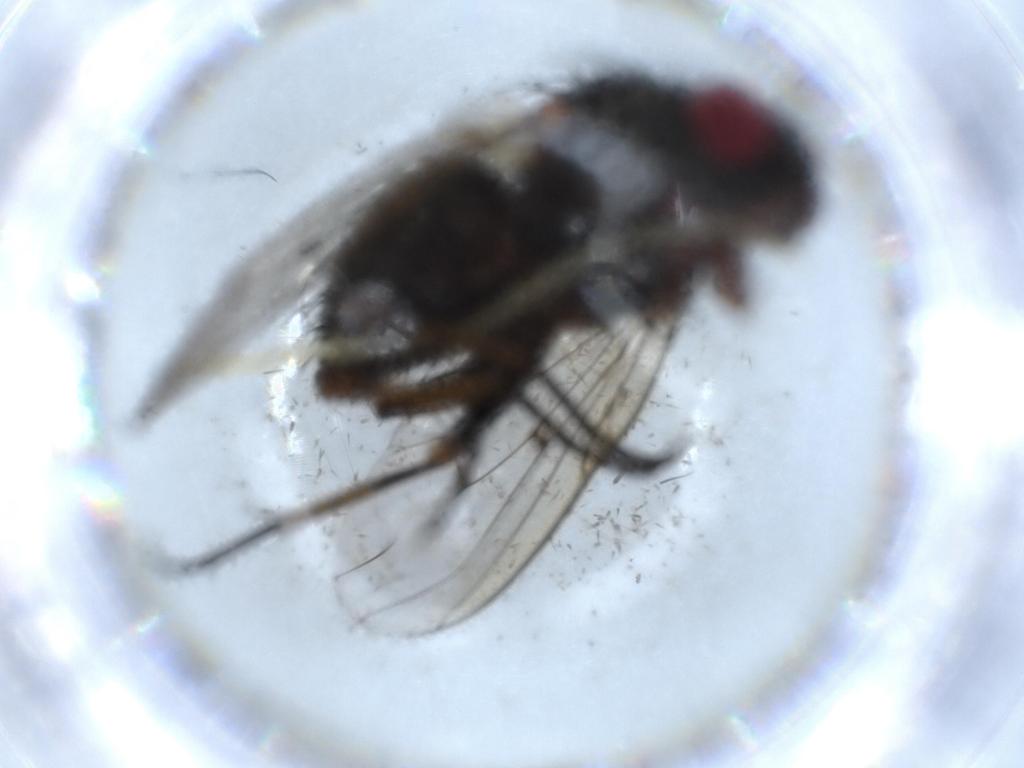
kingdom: Animalia
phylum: Arthropoda
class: Insecta
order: Diptera
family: Muscidae
